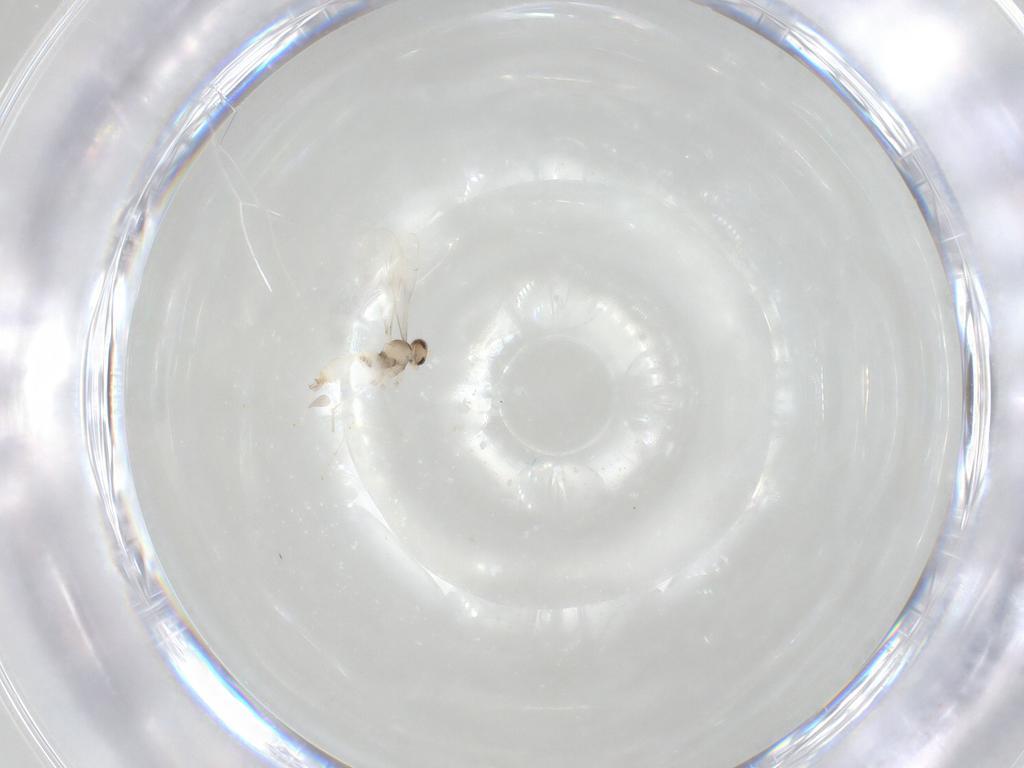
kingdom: Animalia
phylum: Arthropoda
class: Insecta
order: Diptera
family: Cecidomyiidae
